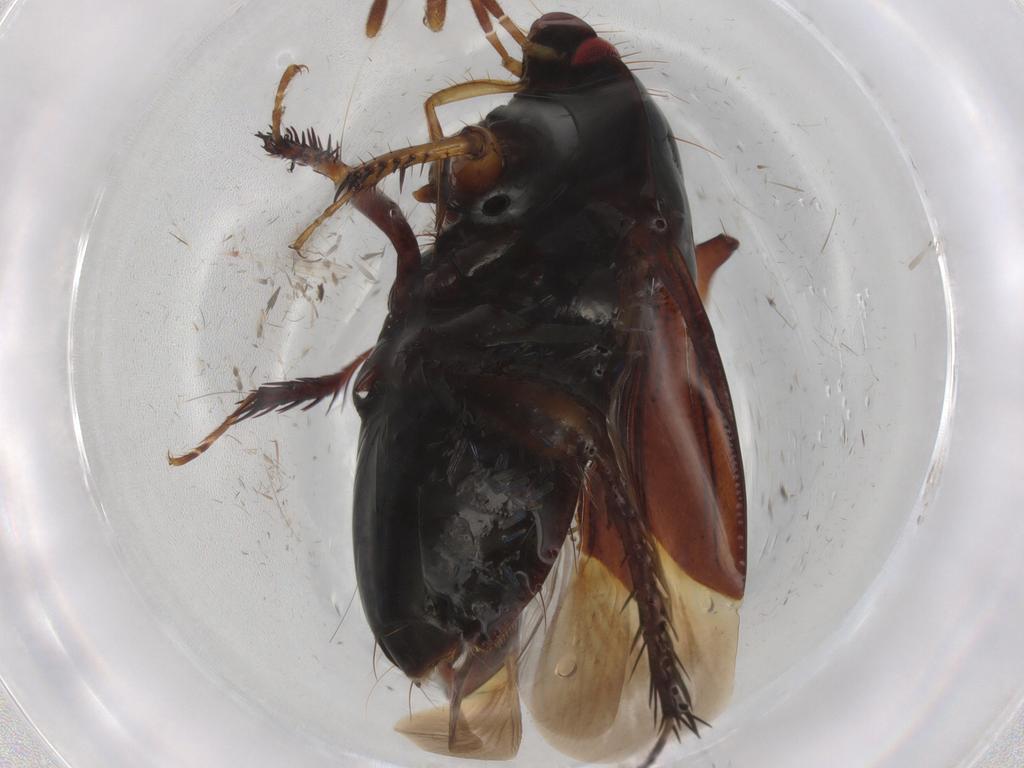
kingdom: Animalia
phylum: Arthropoda
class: Insecta
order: Hemiptera
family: Cydnidae
